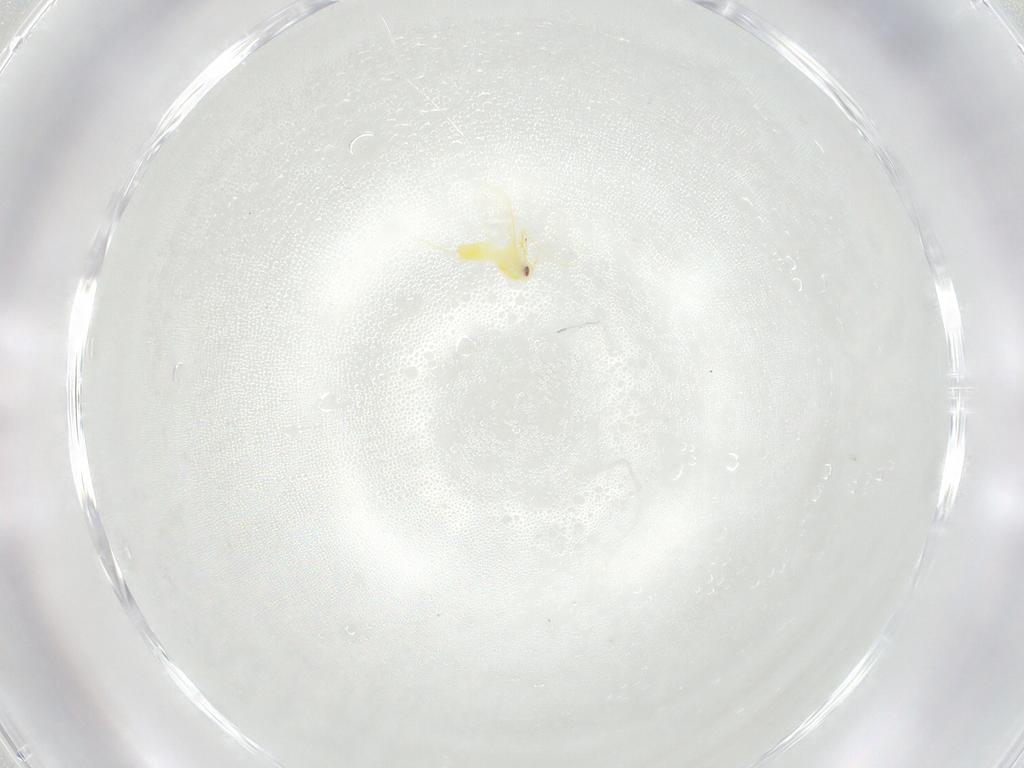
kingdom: Animalia
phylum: Arthropoda
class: Insecta
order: Hemiptera
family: Aleyrodidae
